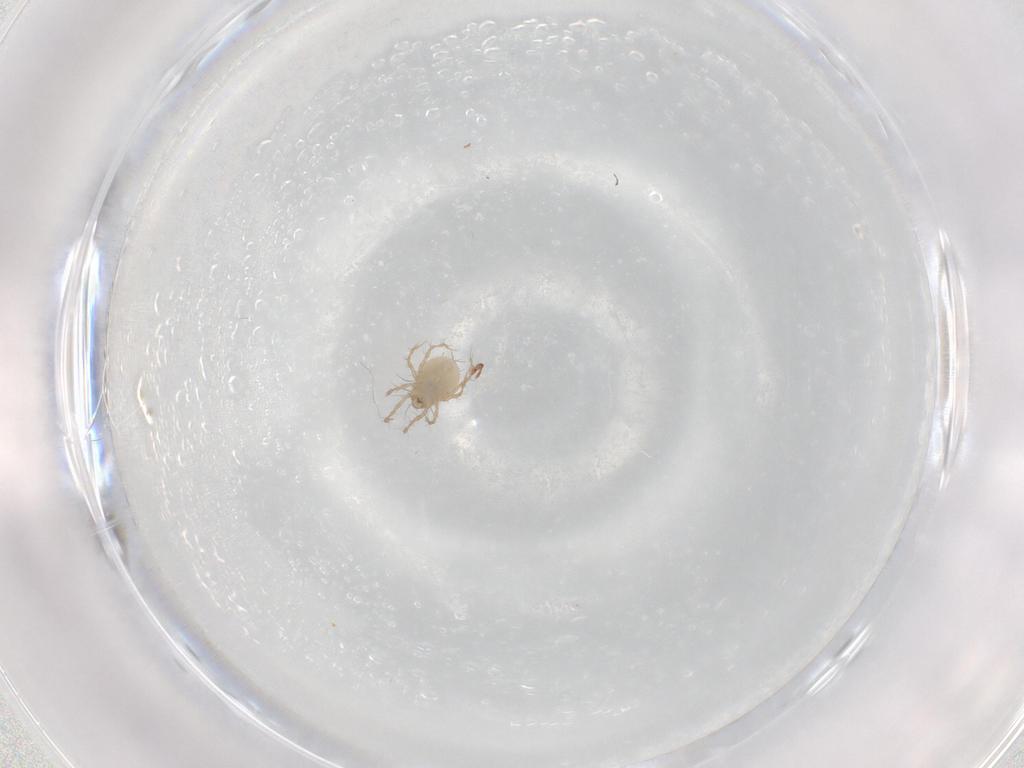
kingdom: Animalia
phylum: Arthropoda
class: Arachnida
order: Sarcoptiformes
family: Damaeidae
